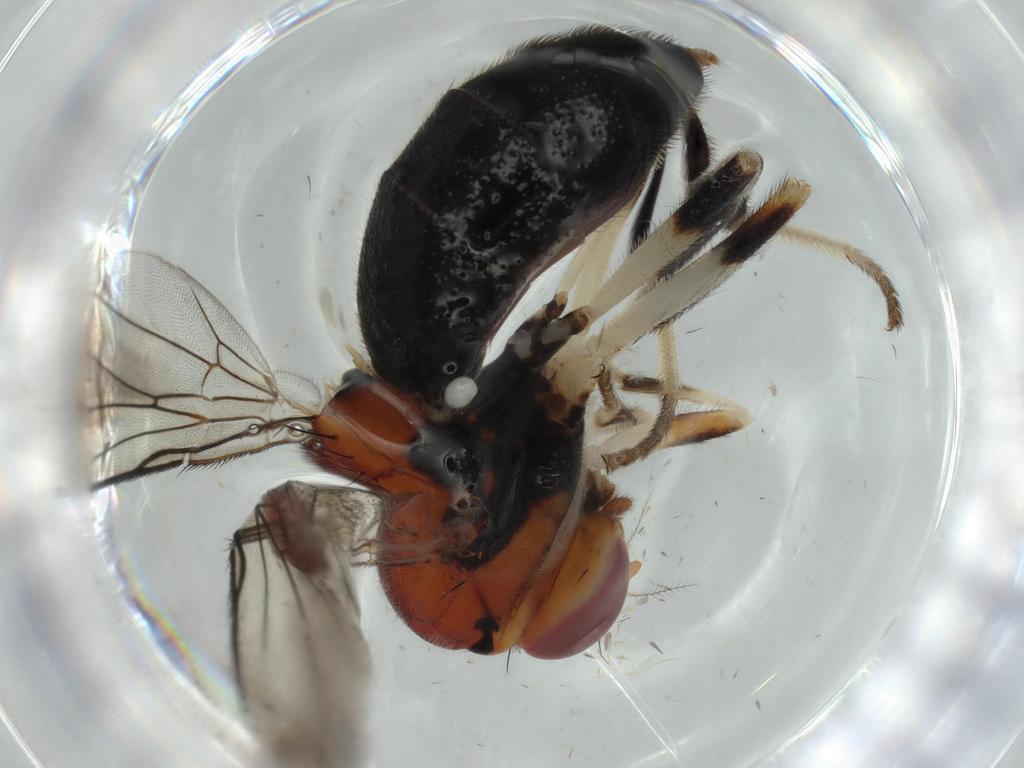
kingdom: Animalia
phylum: Arthropoda
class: Insecta
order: Diptera
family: Calliphoridae
